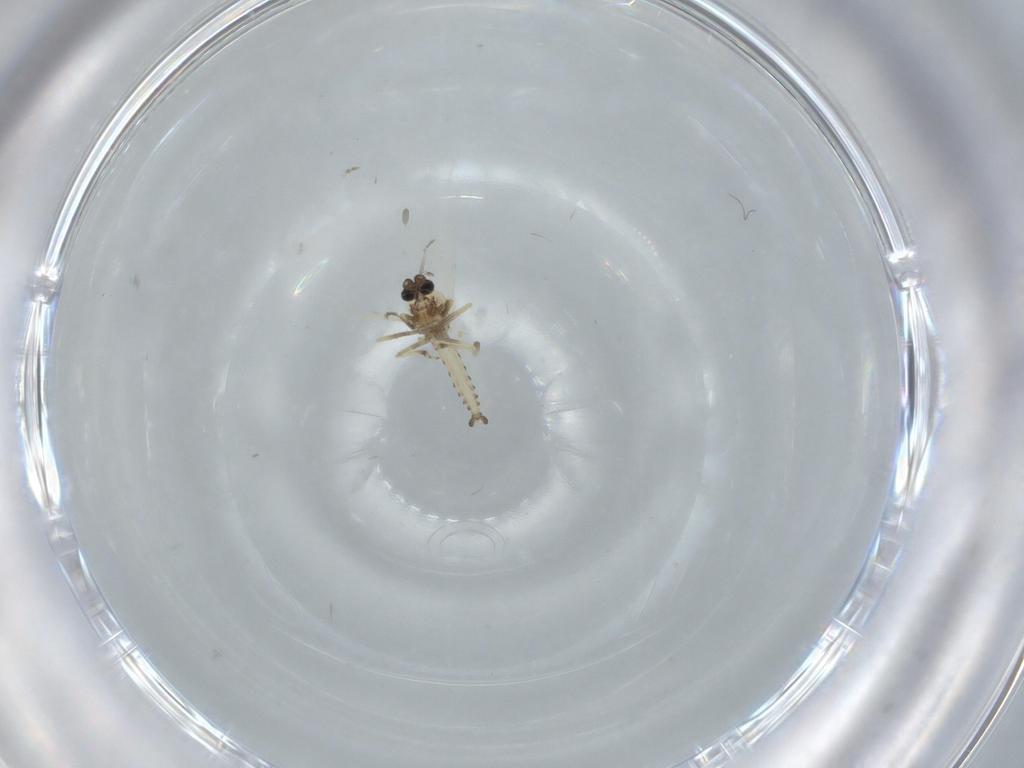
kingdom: Animalia
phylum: Arthropoda
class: Insecta
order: Diptera
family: Ceratopogonidae
